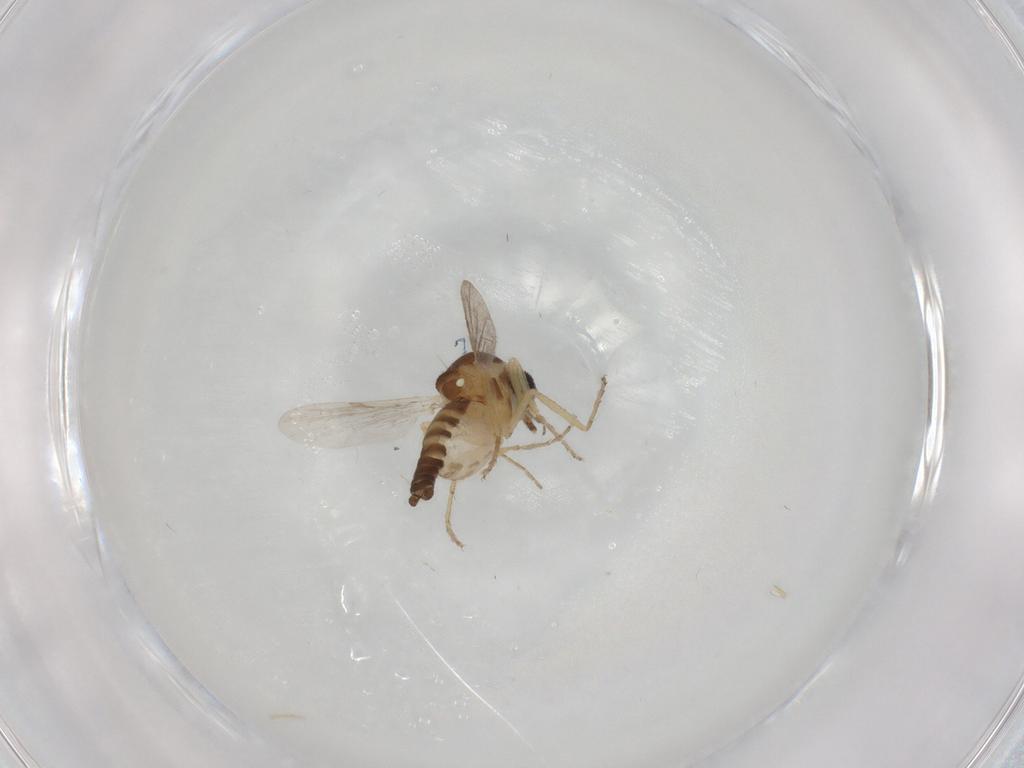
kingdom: Animalia
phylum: Arthropoda
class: Insecta
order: Diptera
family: Ceratopogonidae
